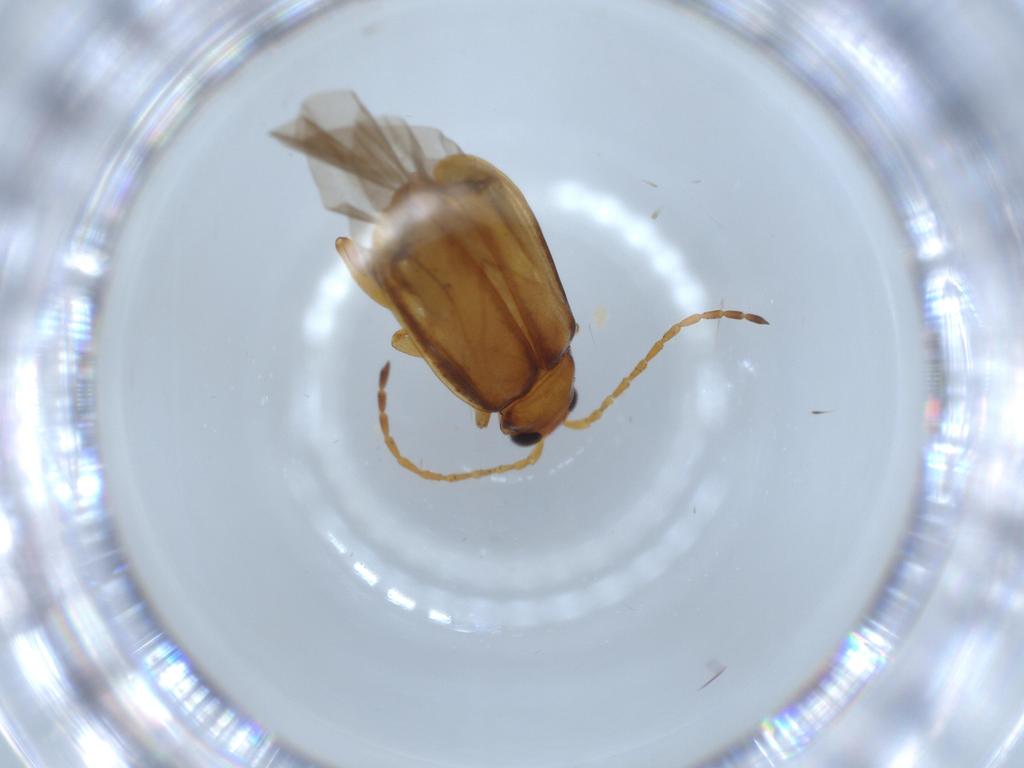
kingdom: Animalia
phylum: Arthropoda
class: Insecta
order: Coleoptera
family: Chrysomelidae
